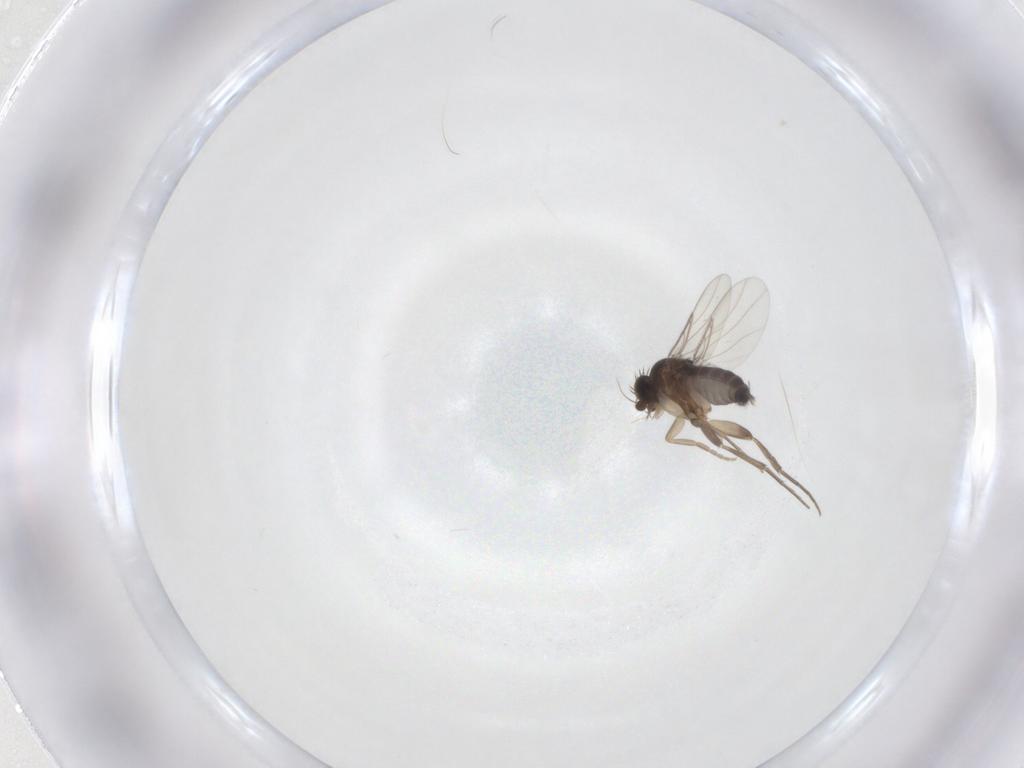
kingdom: Animalia
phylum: Arthropoda
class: Insecta
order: Diptera
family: Phoridae
